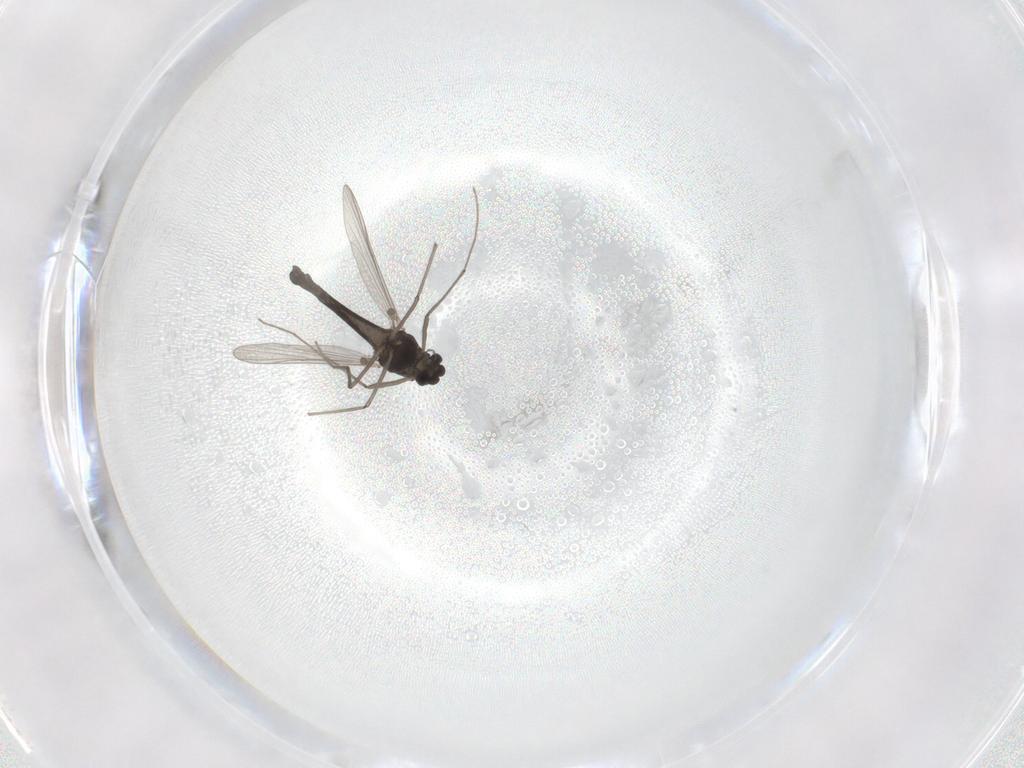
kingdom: Animalia
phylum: Arthropoda
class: Insecta
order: Diptera
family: Chironomidae
